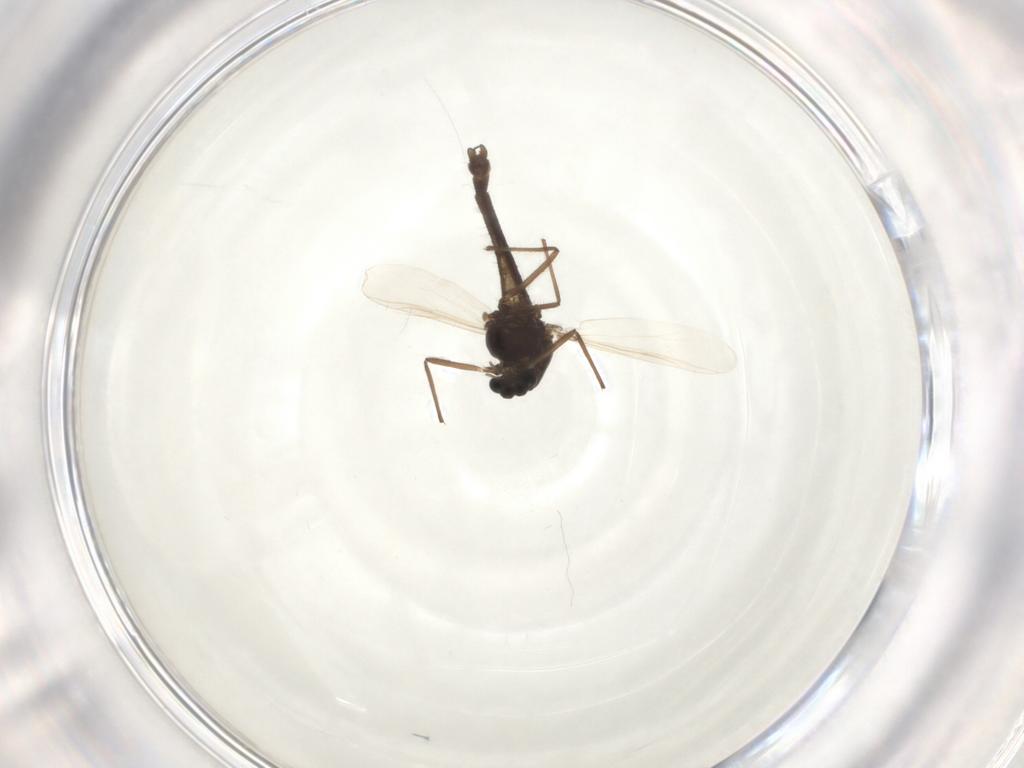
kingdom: Animalia
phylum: Arthropoda
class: Insecta
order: Diptera
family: Chironomidae
